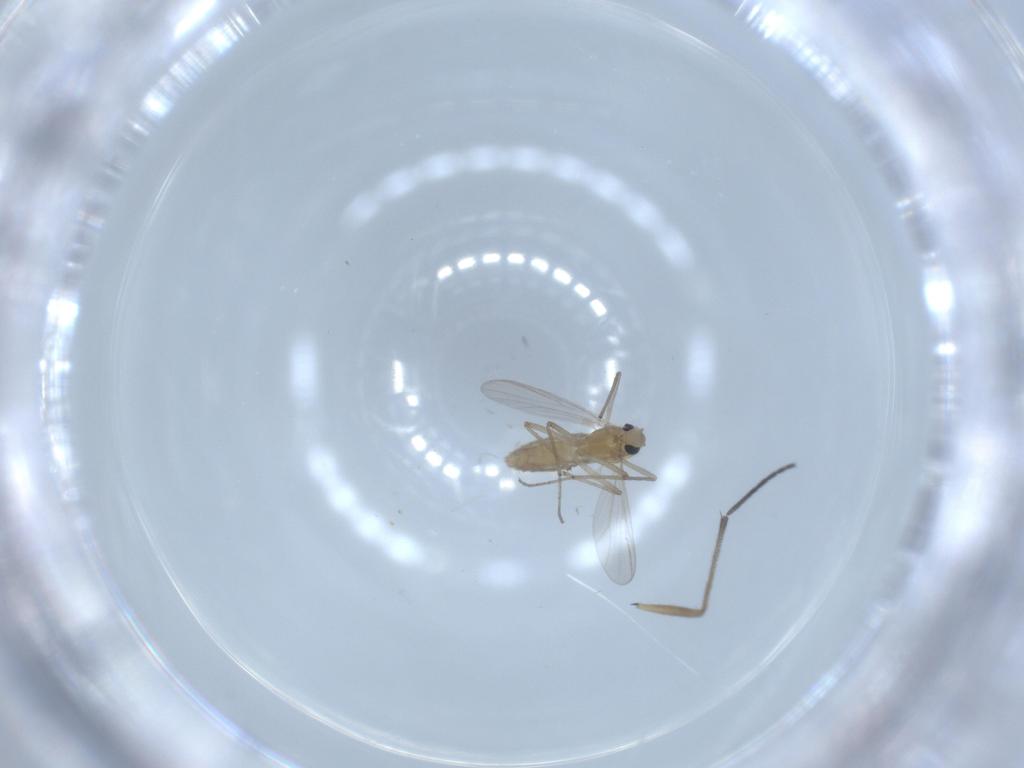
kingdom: Animalia
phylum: Arthropoda
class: Insecta
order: Diptera
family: Chironomidae
